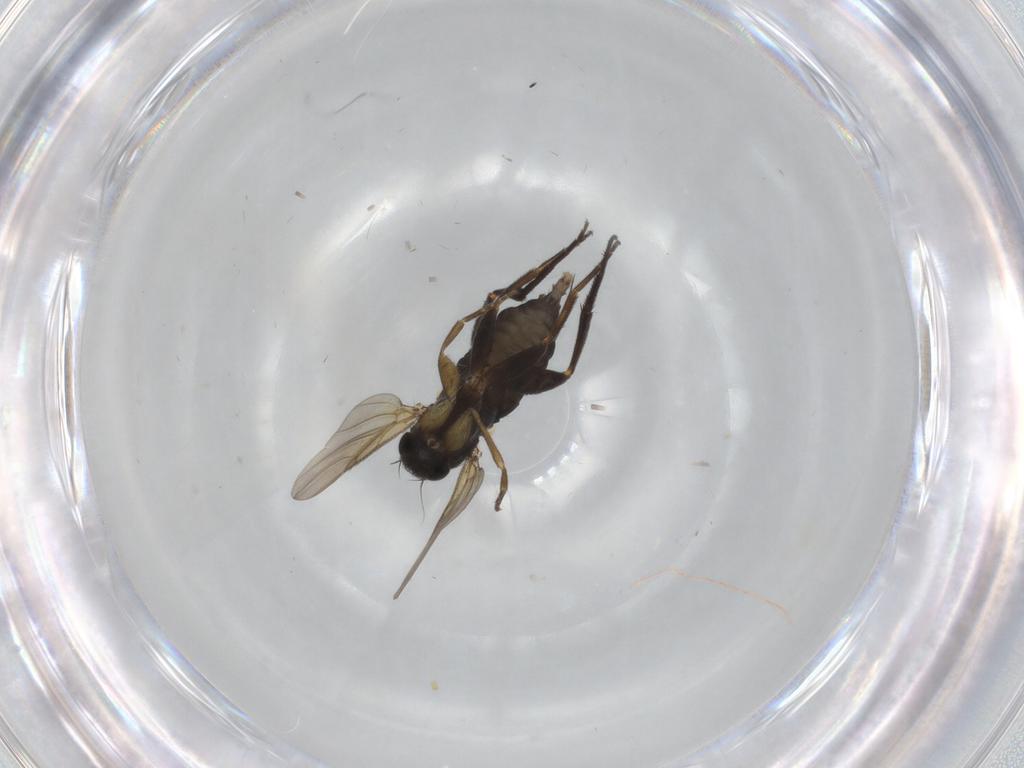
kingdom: Animalia
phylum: Arthropoda
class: Insecta
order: Diptera
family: Phoridae
